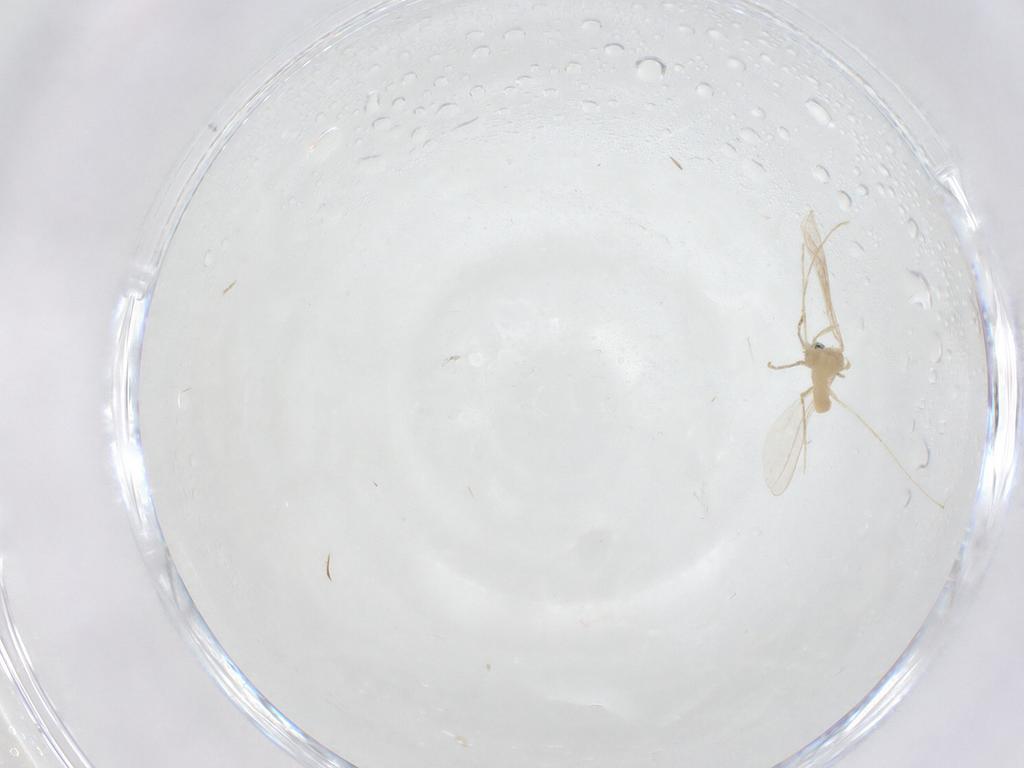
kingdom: Animalia
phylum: Arthropoda
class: Insecta
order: Diptera
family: Cecidomyiidae
